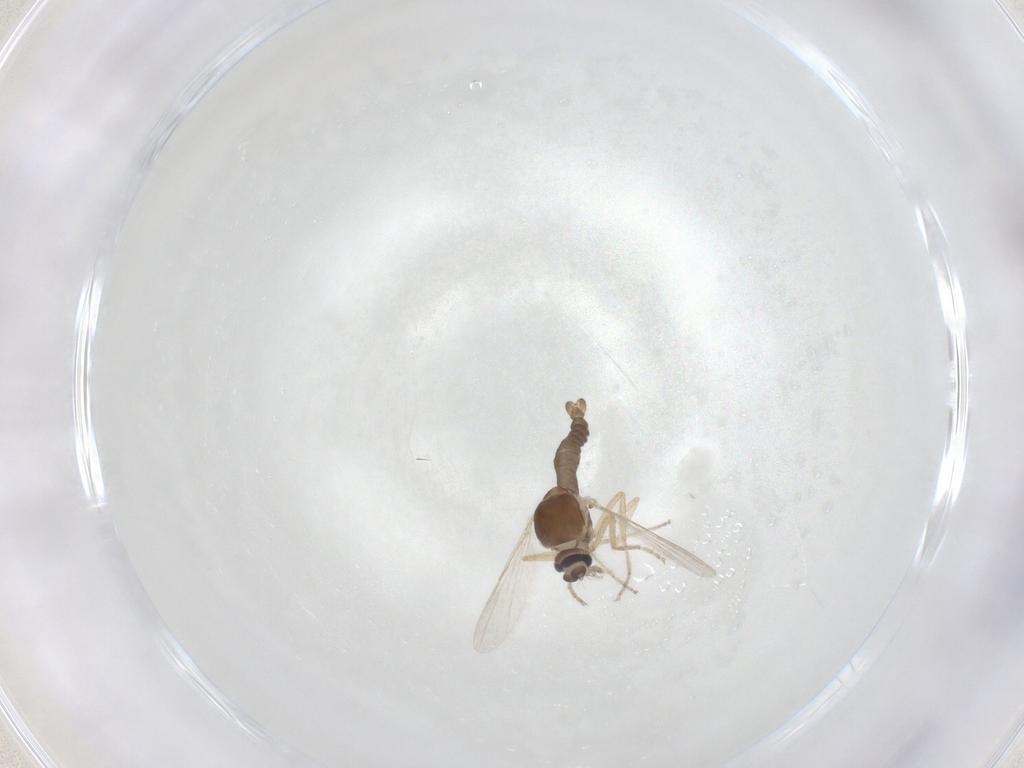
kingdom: Animalia
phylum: Arthropoda
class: Insecta
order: Diptera
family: Ceratopogonidae
